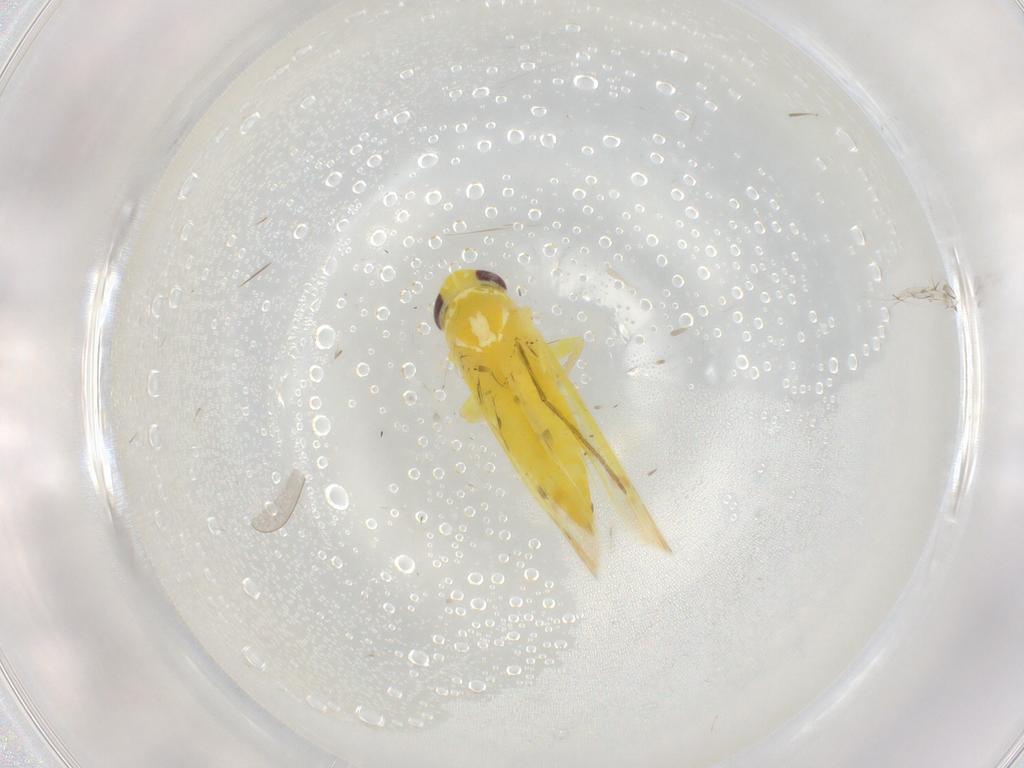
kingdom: Animalia
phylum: Arthropoda
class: Insecta
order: Hemiptera
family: Cicadellidae
